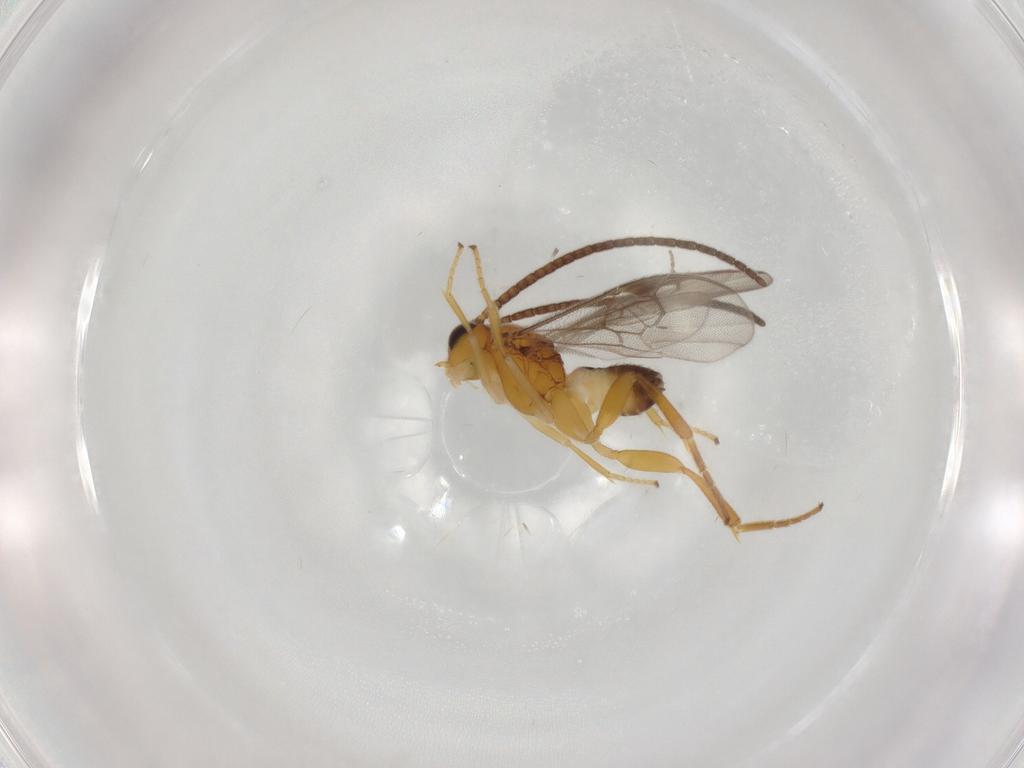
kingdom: Animalia
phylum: Arthropoda
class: Insecta
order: Hymenoptera
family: Braconidae
